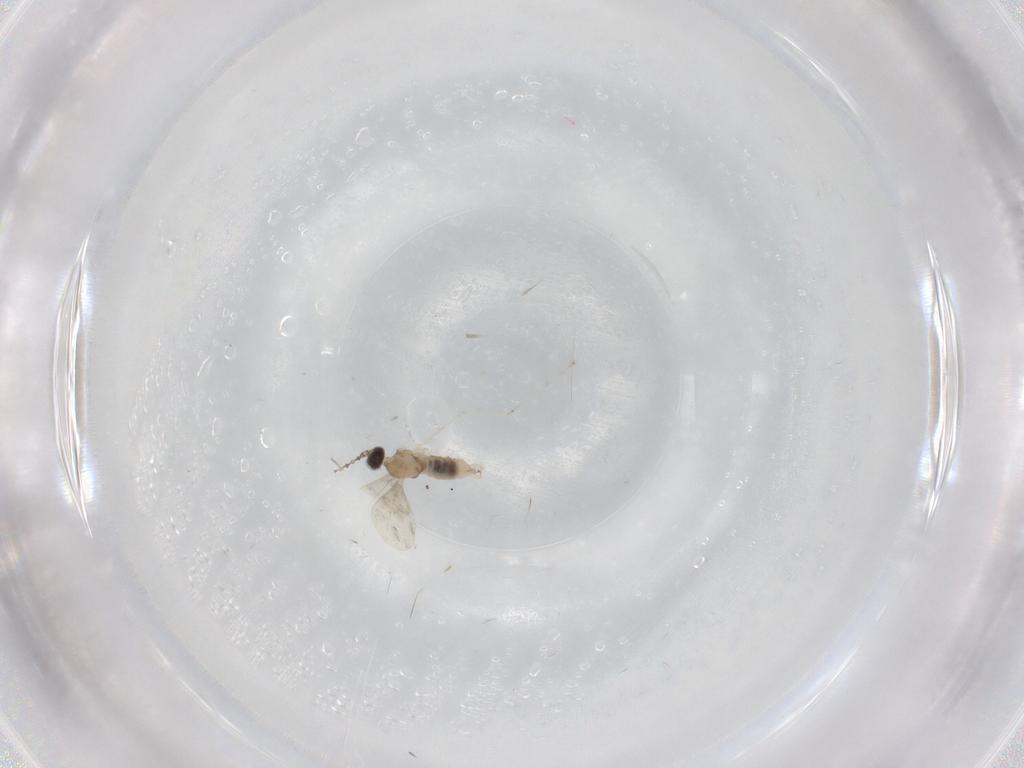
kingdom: Animalia
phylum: Arthropoda
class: Insecta
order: Diptera
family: Cecidomyiidae
